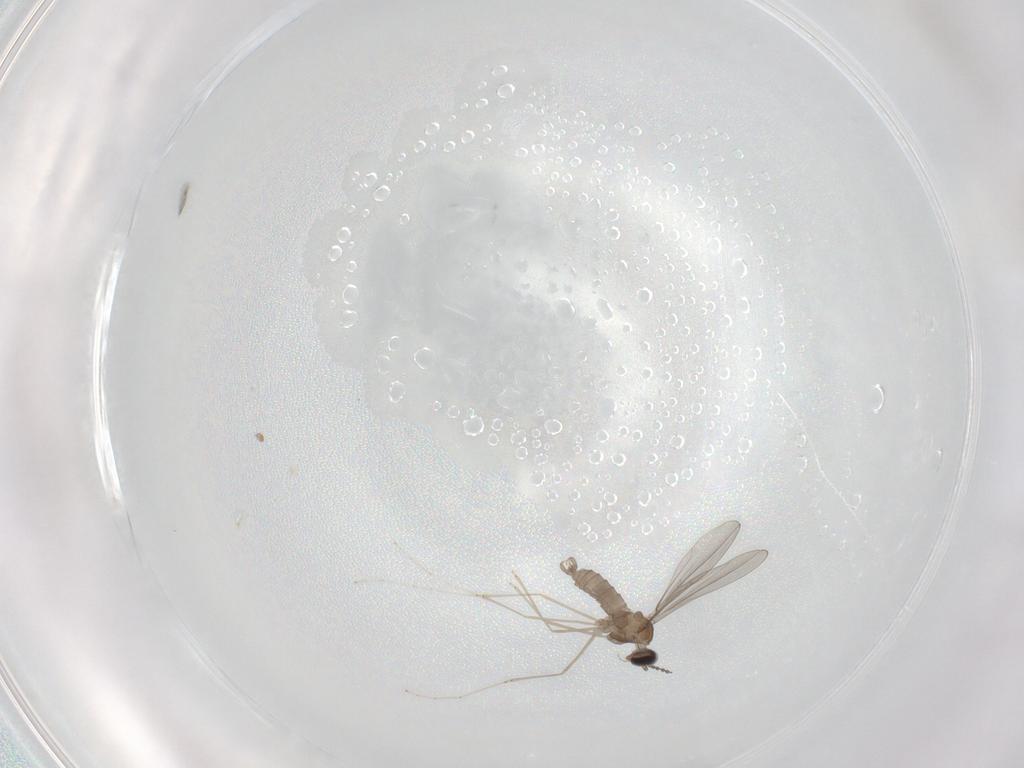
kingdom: Animalia
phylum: Arthropoda
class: Insecta
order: Diptera
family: Cecidomyiidae
